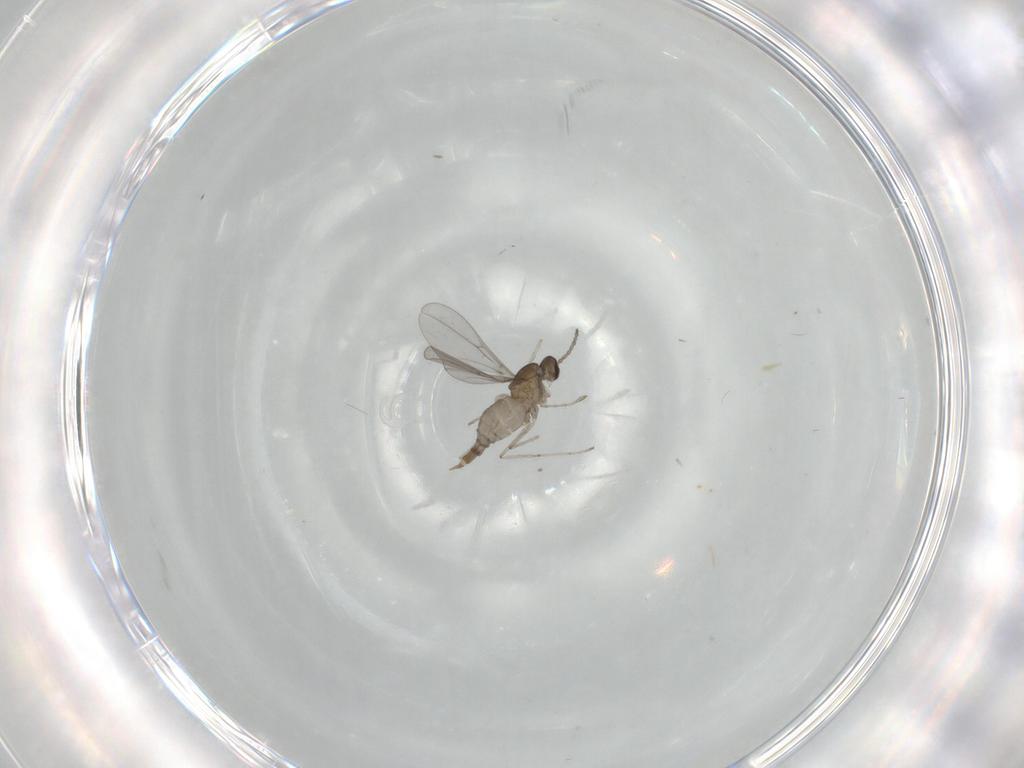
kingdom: Animalia
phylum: Arthropoda
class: Insecta
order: Diptera
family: Cecidomyiidae
